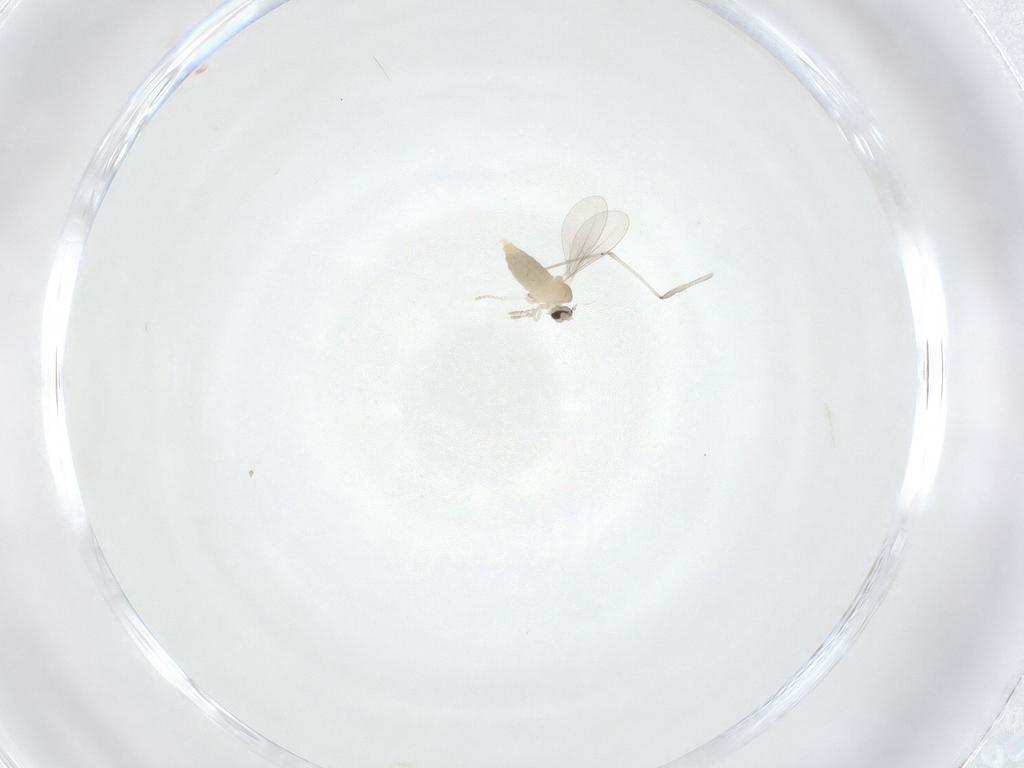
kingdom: Animalia
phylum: Arthropoda
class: Insecta
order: Diptera
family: Cecidomyiidae
